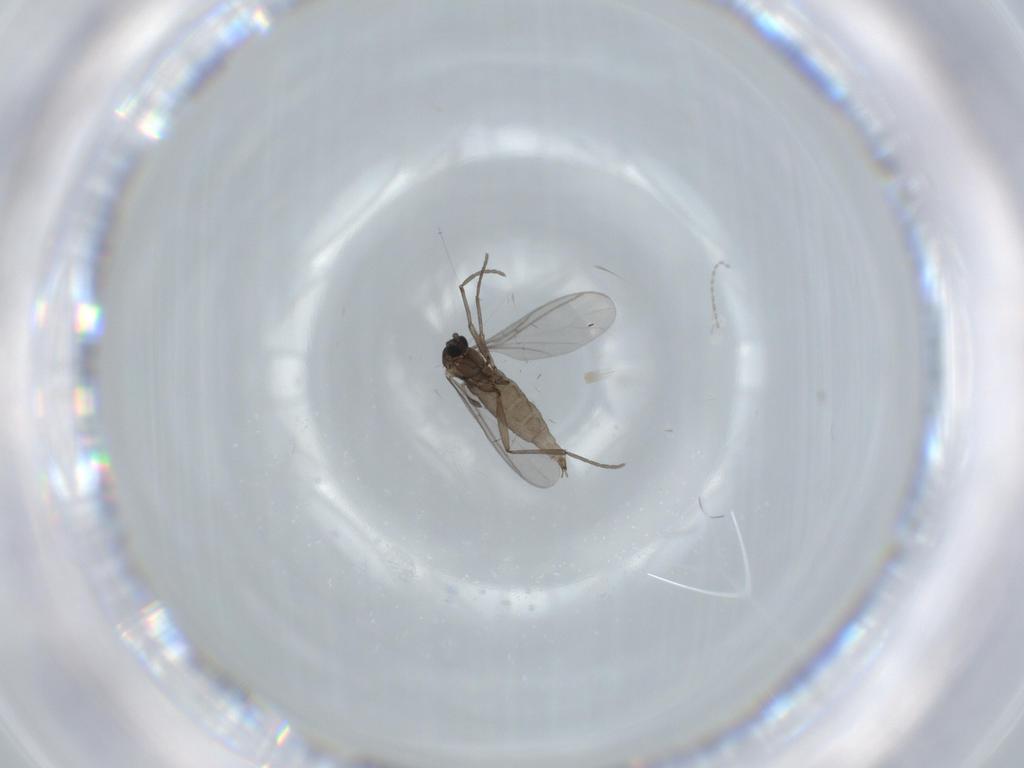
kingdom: Animalia
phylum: Arthropoda
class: Insecta
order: Diptera
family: Sciaridae
